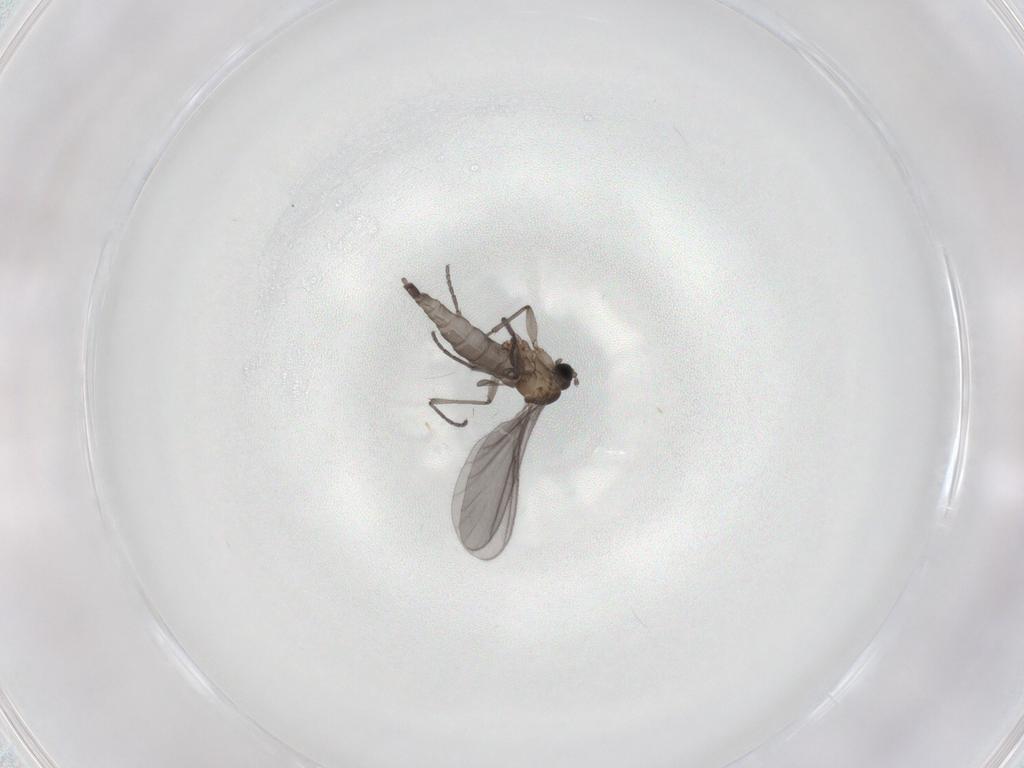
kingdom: Animalia
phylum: Arthropoda
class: Insecta
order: Diptera
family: Sciaridae
